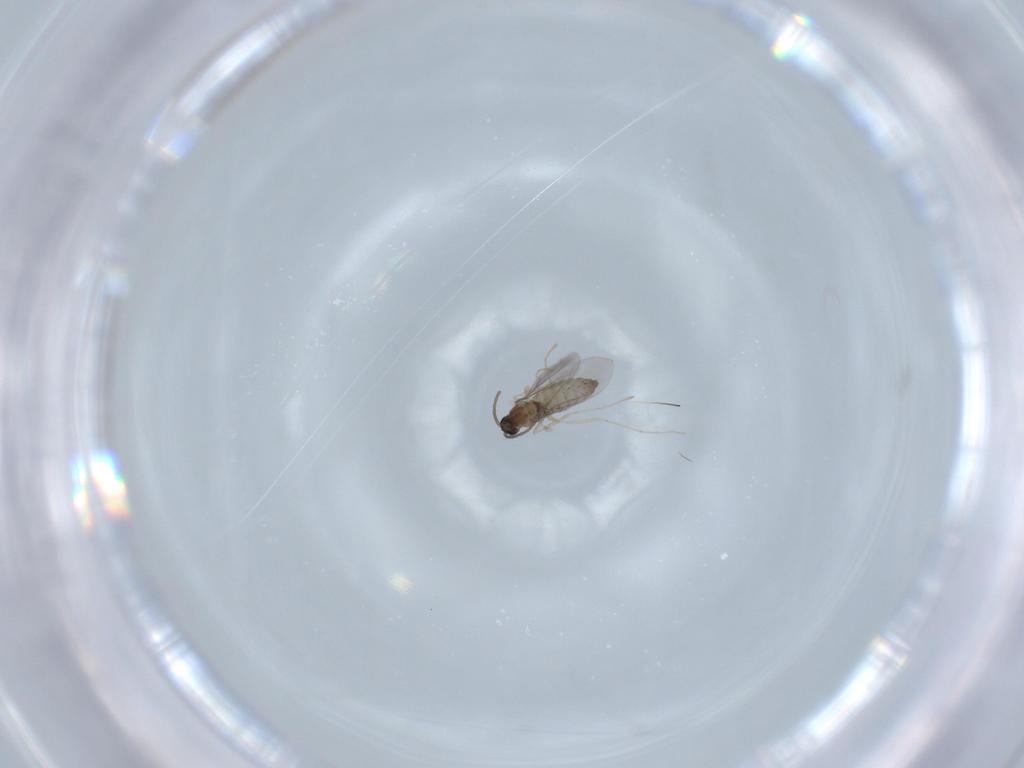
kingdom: Animalia
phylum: Arthropoda
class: Insecta
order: Diptera
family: Cecidomyiidae
